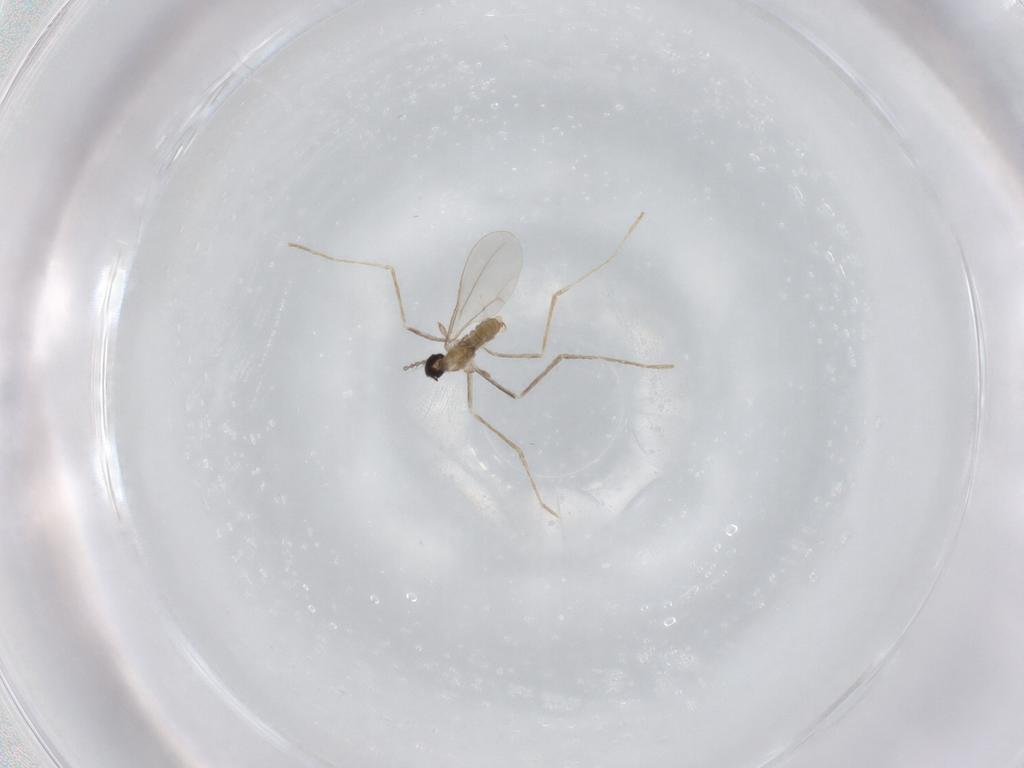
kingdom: Animalia
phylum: Arthropoda
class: Insecta
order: Diptera
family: Cecidomyiidae
